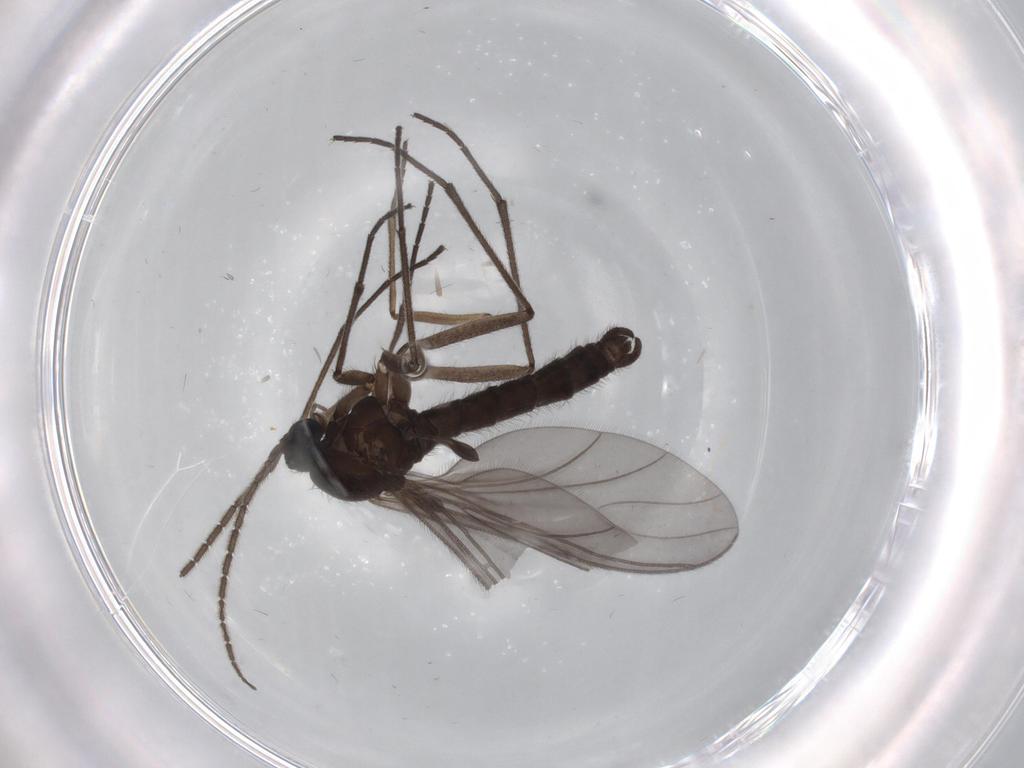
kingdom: Animalia
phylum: Arthropoda
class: Insecta
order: Diptera
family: Sciaridae
